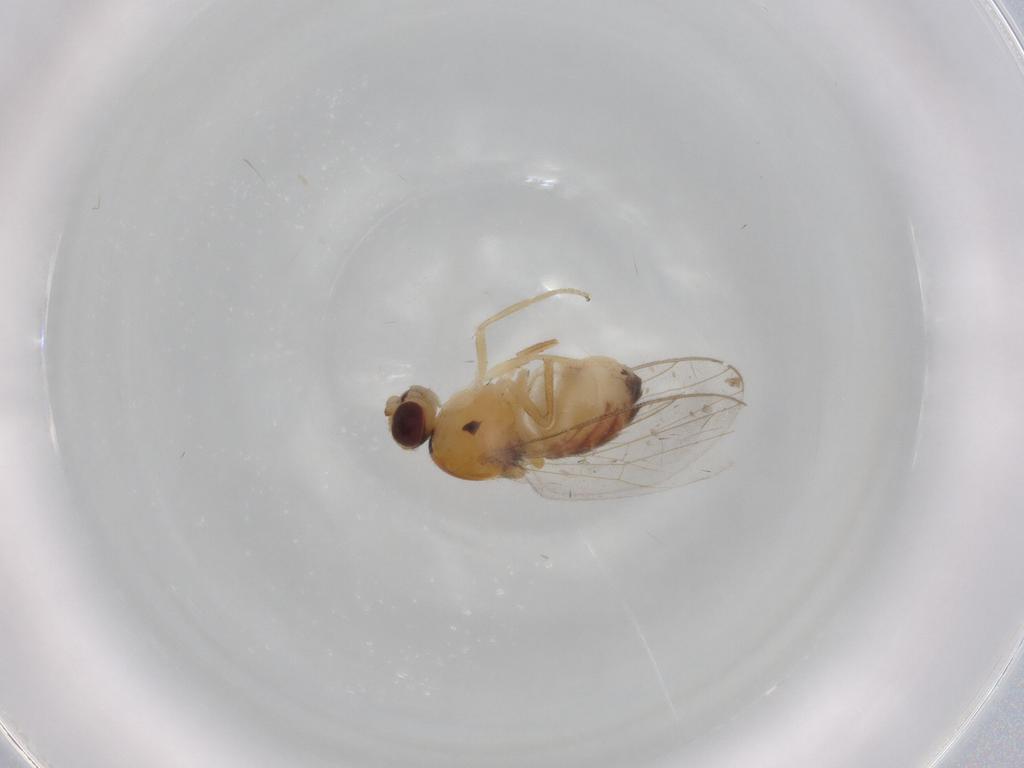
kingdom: Animalia
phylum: Arthropoda
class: Insecta
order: Diptera
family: Chloropidae
